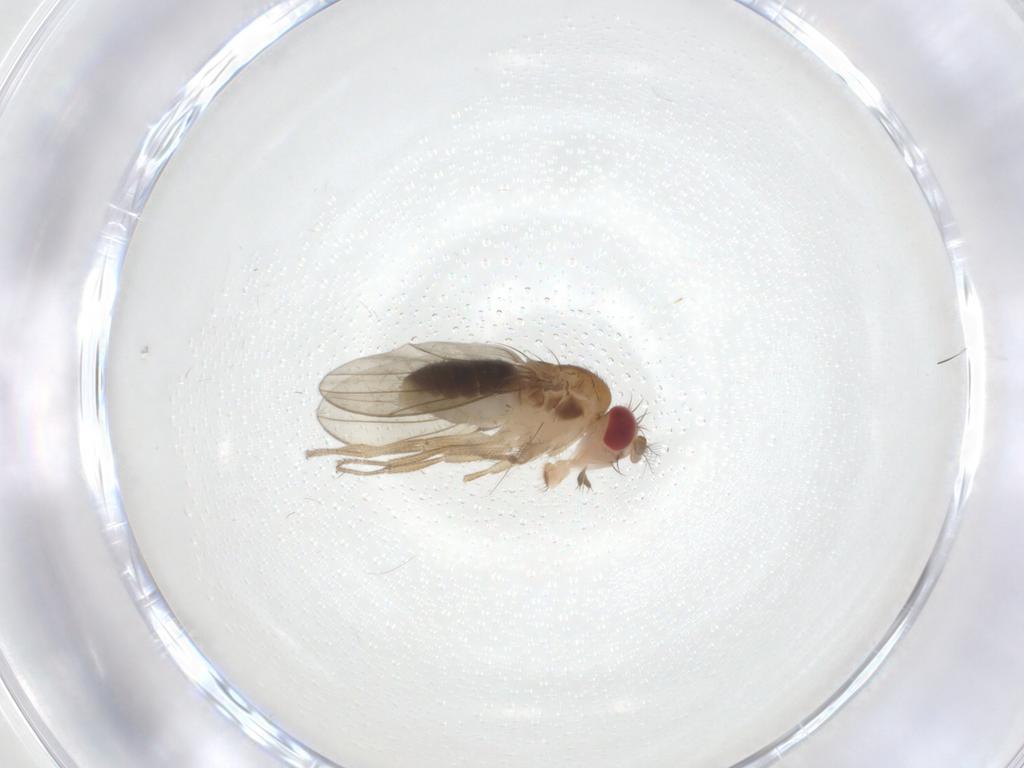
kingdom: Animalia
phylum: Arthropoda
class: Insecta
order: Diptera
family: Drosophilidae
